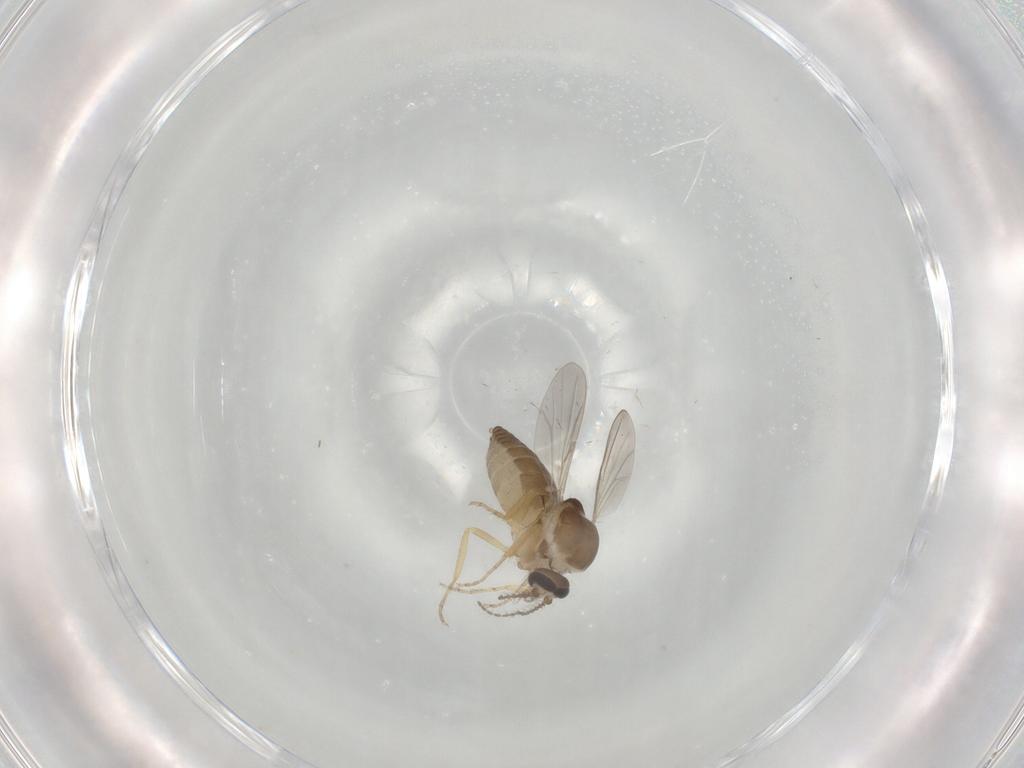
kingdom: Animalia
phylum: Arthropoda
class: Insecta
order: Diptera
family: Ceratopogonidae
